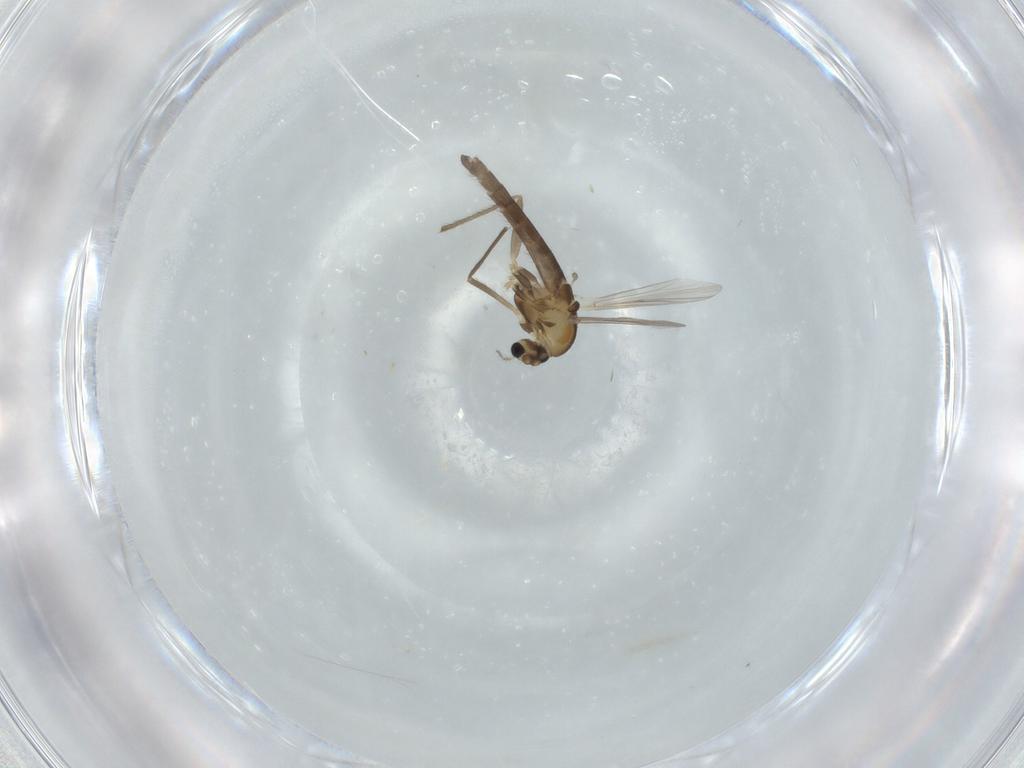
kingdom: Animalia
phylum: Arthropoda
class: Insecta
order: Diptera
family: Chironomidae
